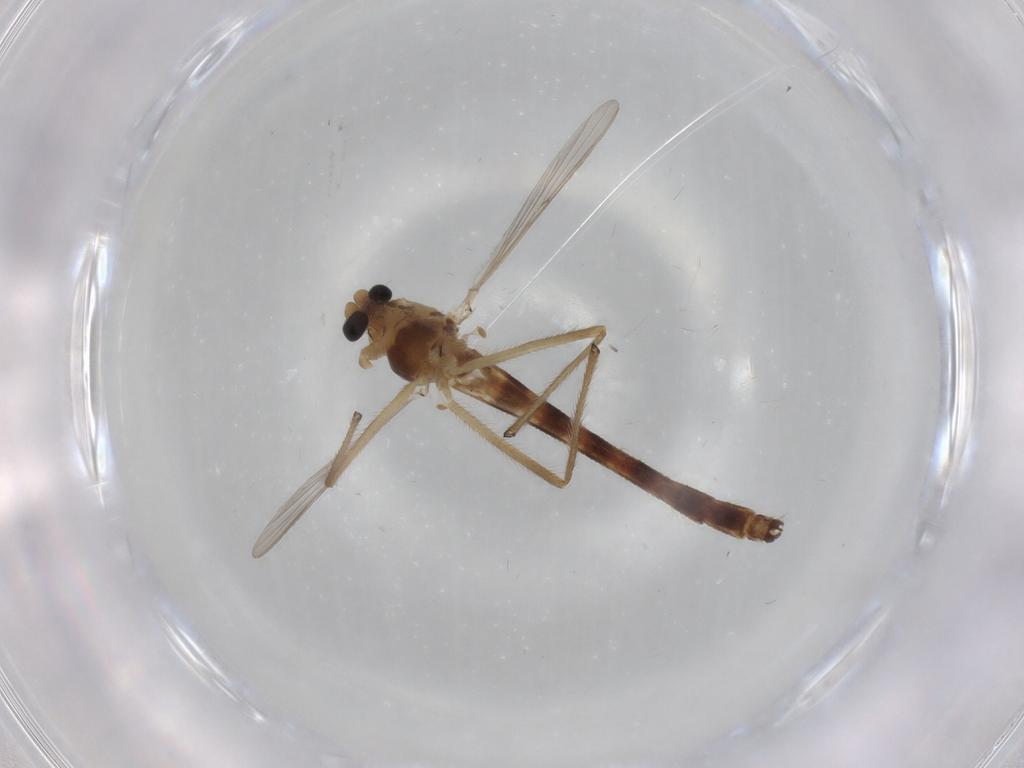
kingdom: Animalia
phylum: Arthropoda
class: Insecta
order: Diptera
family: Chironomidae
